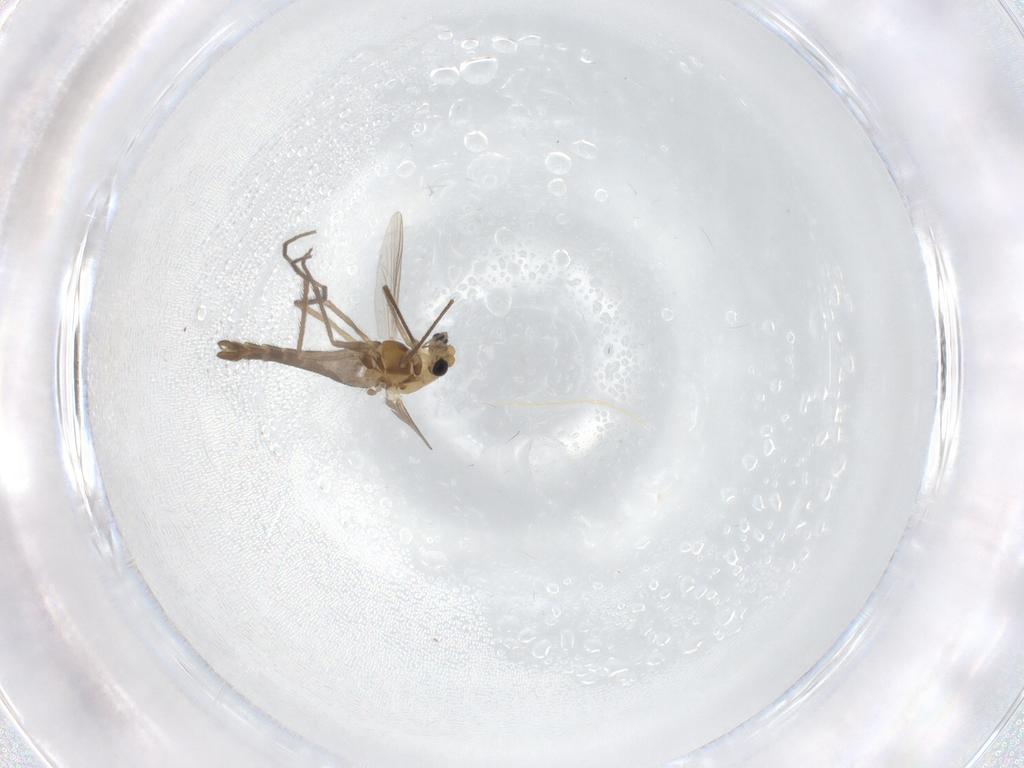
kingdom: Animalia
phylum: Arthropoda
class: Insecta
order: Diptera
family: Chironomidae
